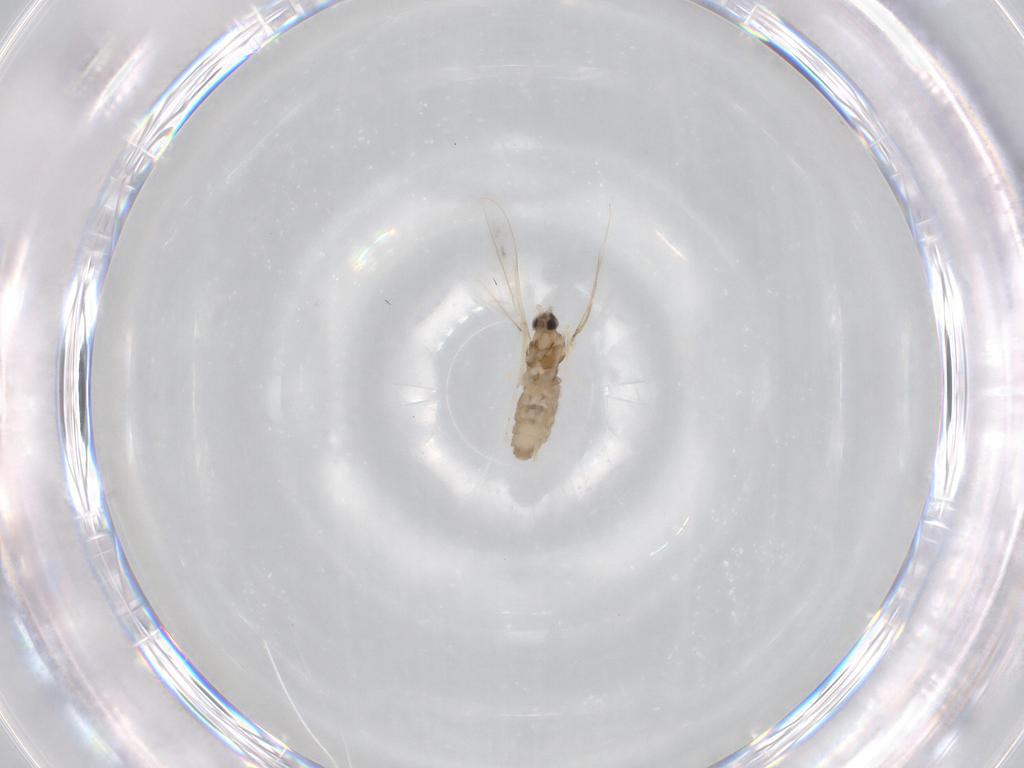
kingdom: Animalia
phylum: Arthropoda
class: Insecta
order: Diptera
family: Cecidomyiidae
